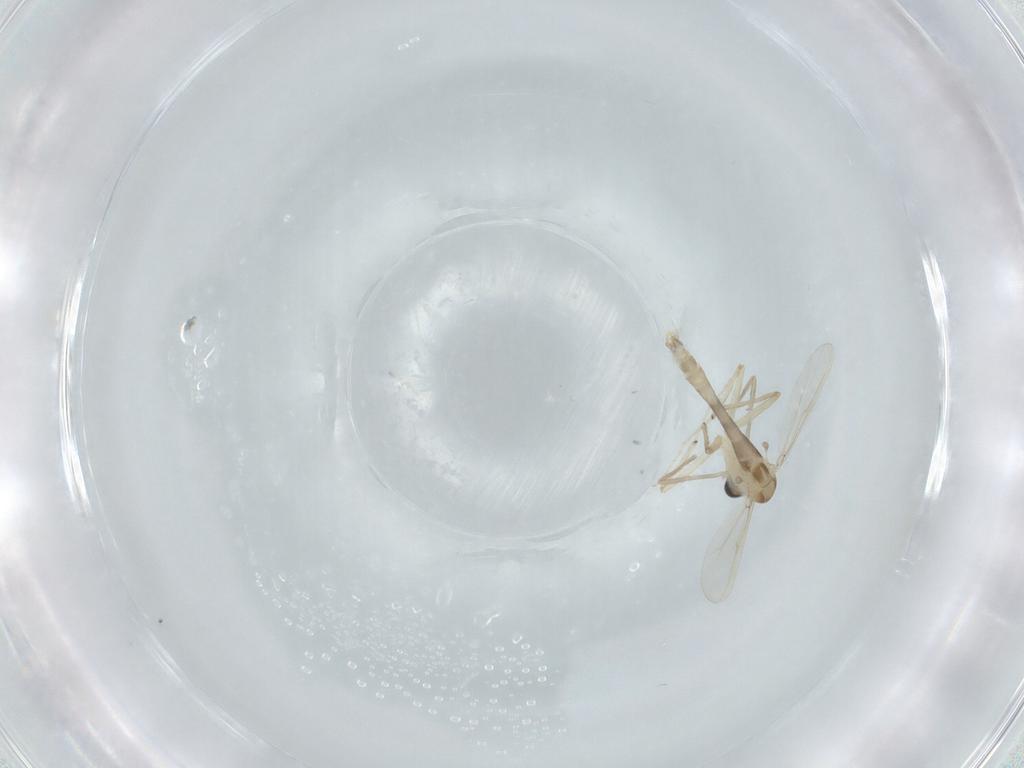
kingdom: Animalia
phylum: Arthropoda
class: Insecta
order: Diptera
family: Chironomidae
